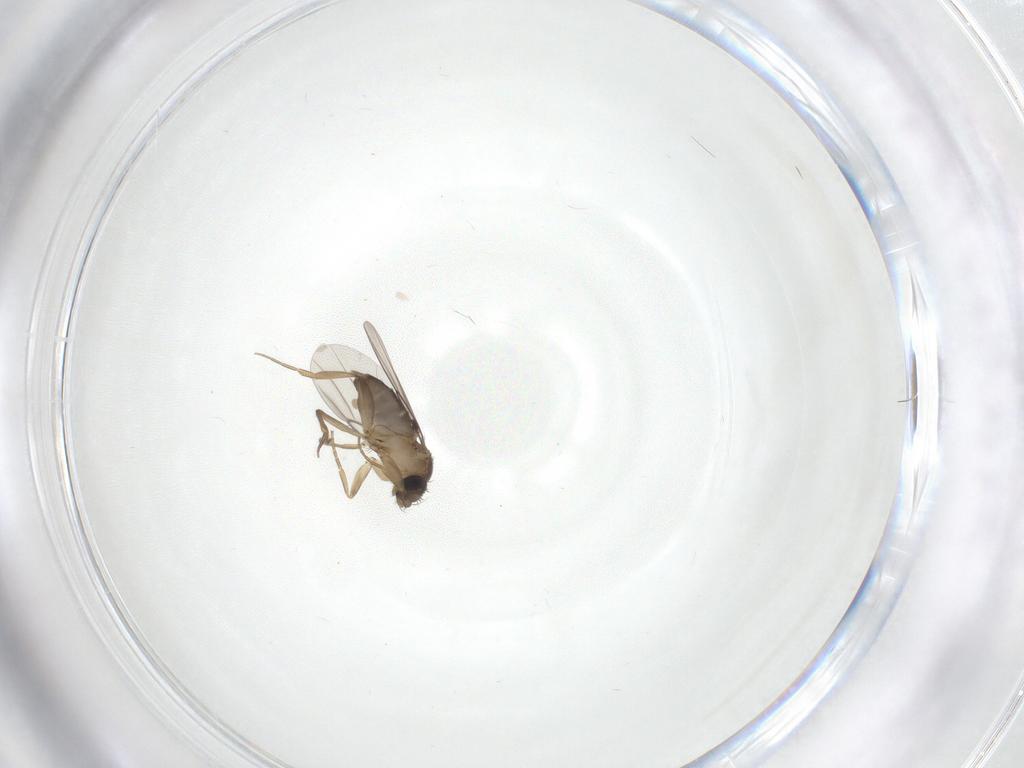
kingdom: Animalia
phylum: Arthropoda
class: Insecta
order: Diptera
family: Phoridae
